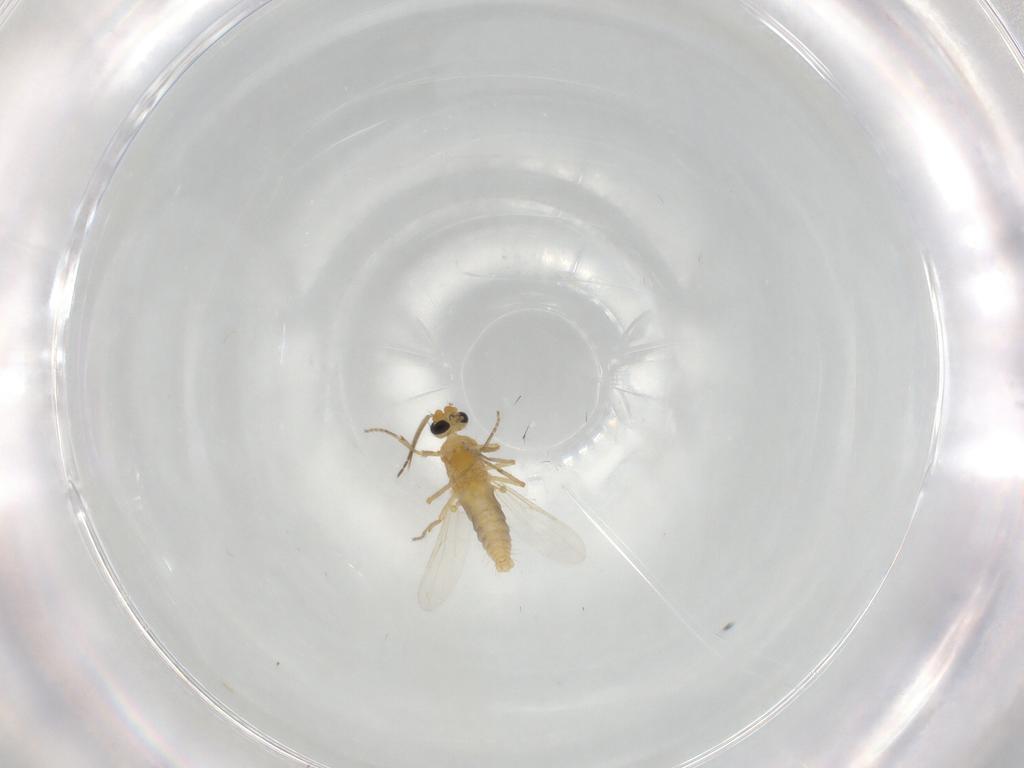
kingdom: Animalia
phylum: Arthropoda
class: Insecta
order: Diptera
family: Ceratopogonidae
